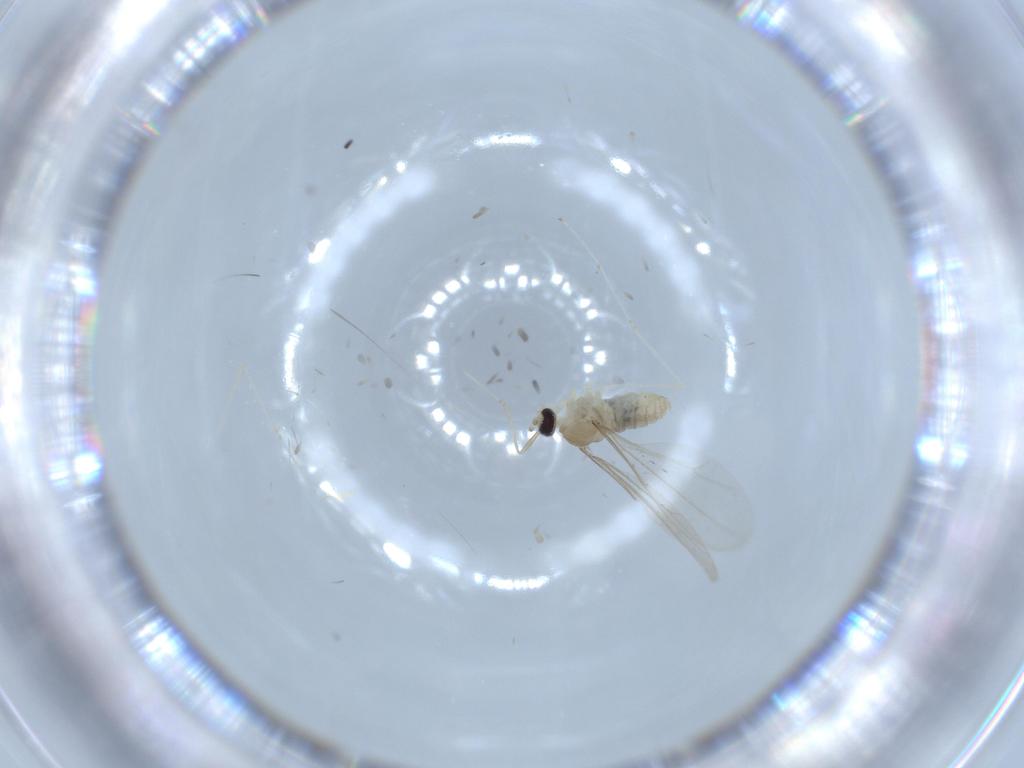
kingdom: Animalia
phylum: Arthropoda
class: Insecta
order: Diptera
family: Cecidomyiidae
